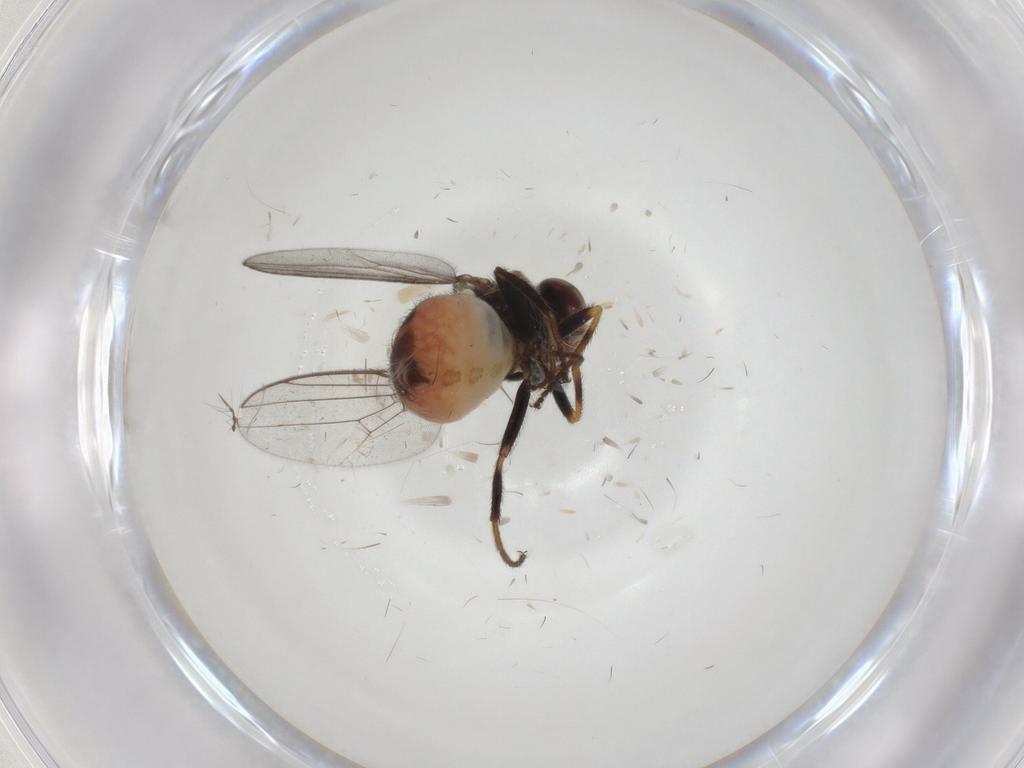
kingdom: Animalia
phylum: Arthropoda
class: Insecta
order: Diptera
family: Chloropidae
